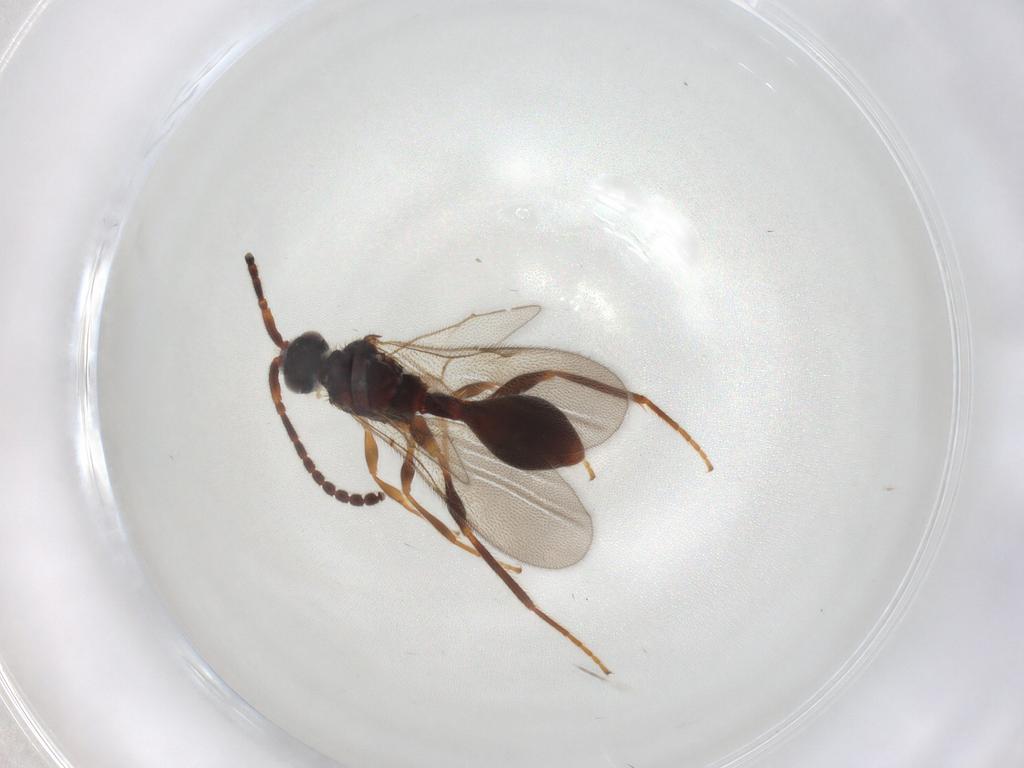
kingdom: Animalia
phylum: Arthropoda
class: Insecta
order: Hymenoptera
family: Diapriidae
